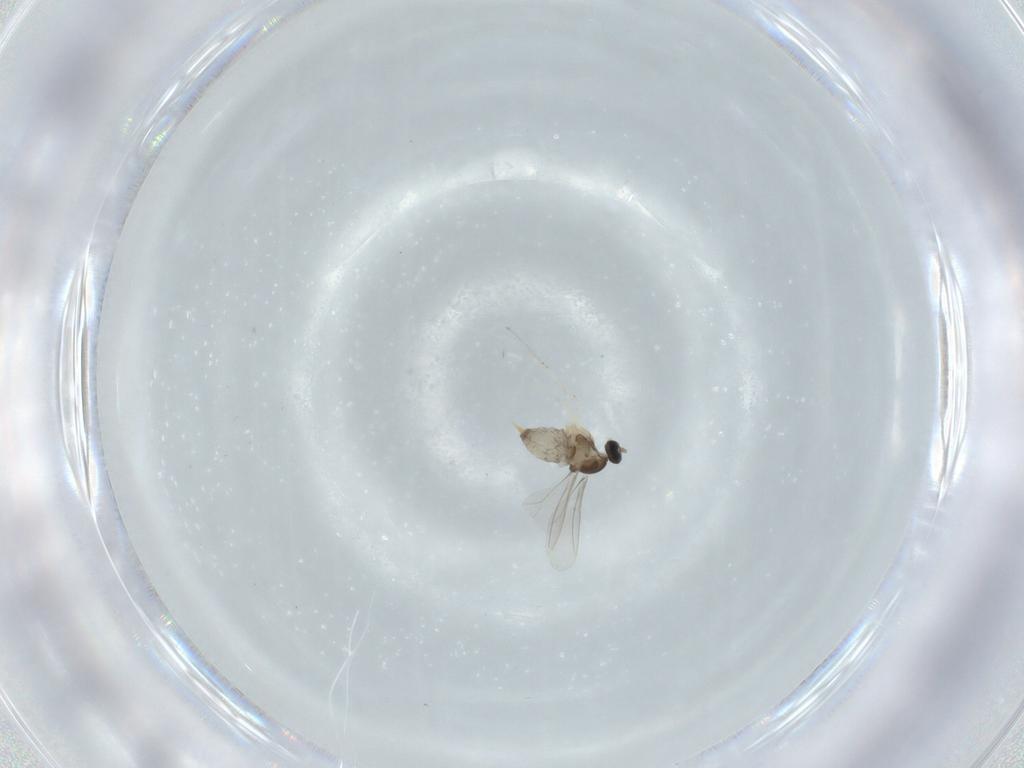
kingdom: Animalia
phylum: Arthropoda
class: Insecta
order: Diptera
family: Cecidomyiidae
